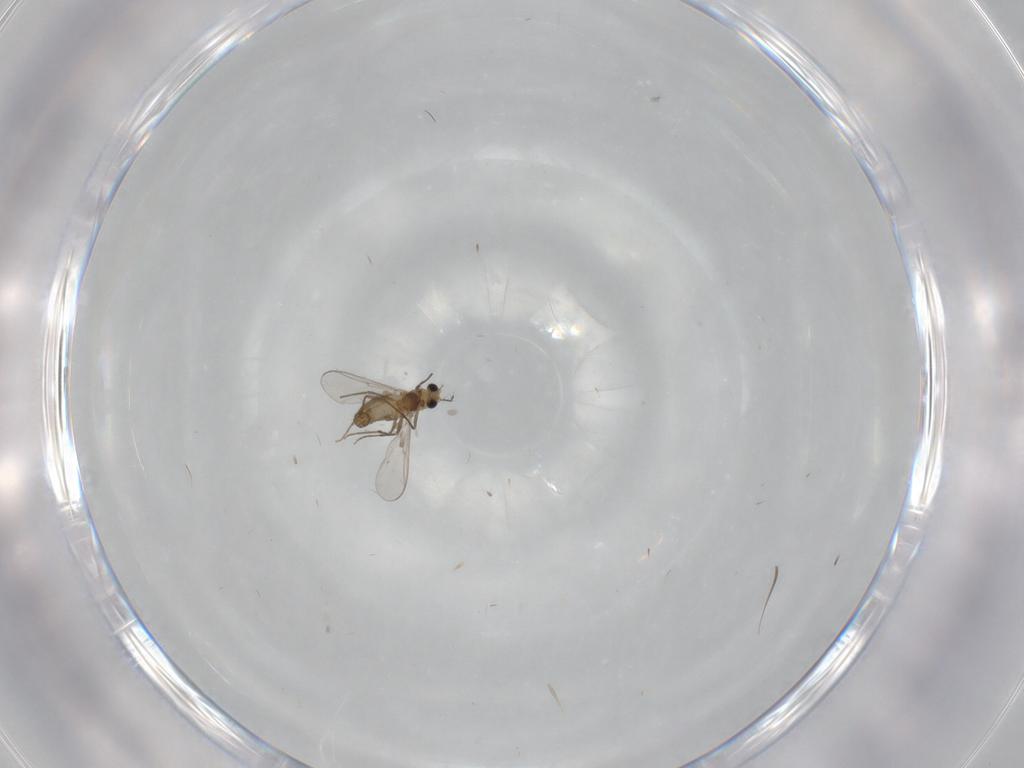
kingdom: Animalia
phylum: Arthropoda
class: Insecta
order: Diptera
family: Chironomidae
